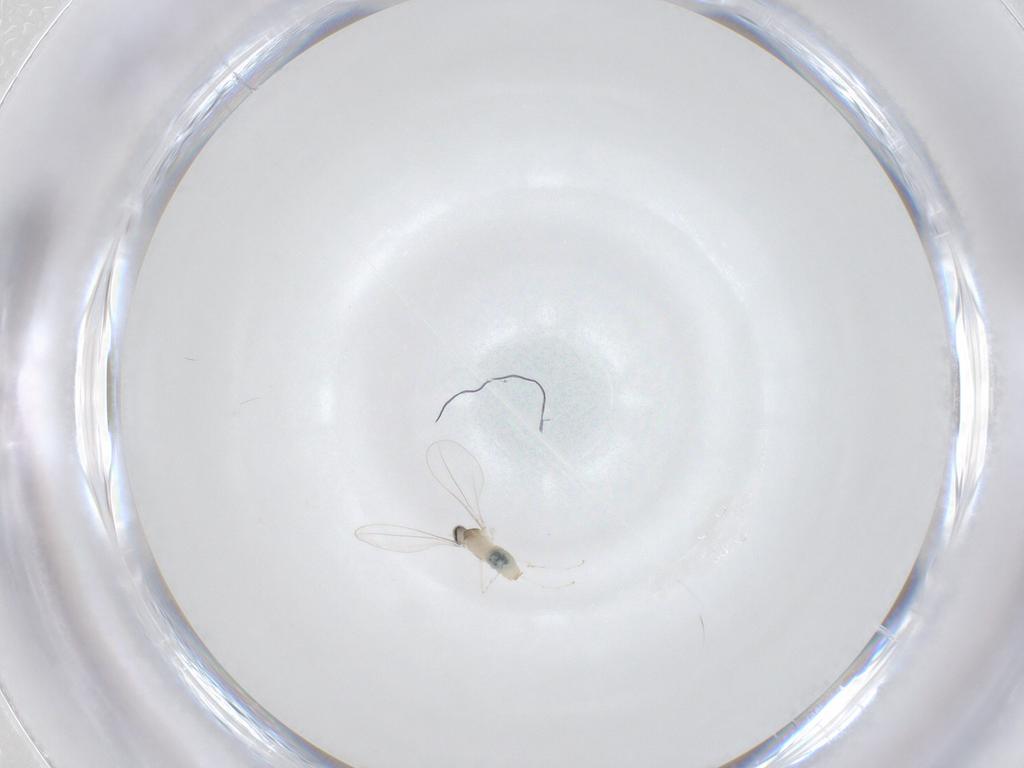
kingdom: Animalia
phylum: Arthropoda
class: Insecta
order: Diptera
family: Cecidomyiidae
